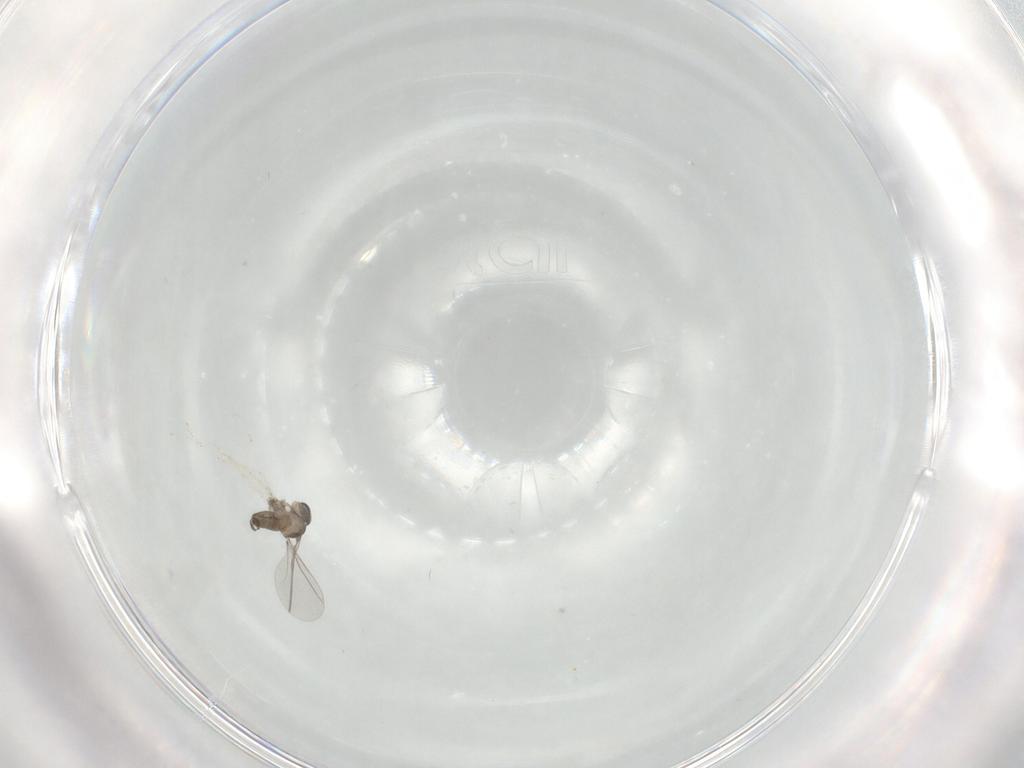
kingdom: Animalia
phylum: Arthropoda
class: Insecta
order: Diptera
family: Cecidomyiidae
